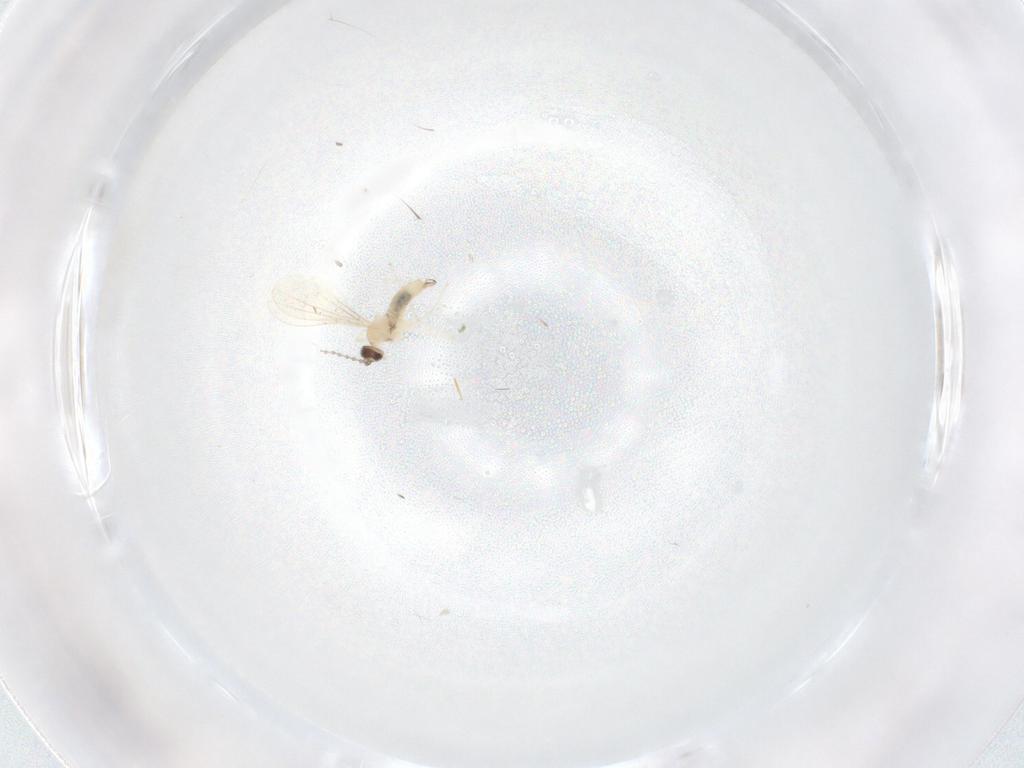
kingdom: Animalia
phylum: Arthropoda
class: Insecta
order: Diptera
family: Cecidomyiidae
